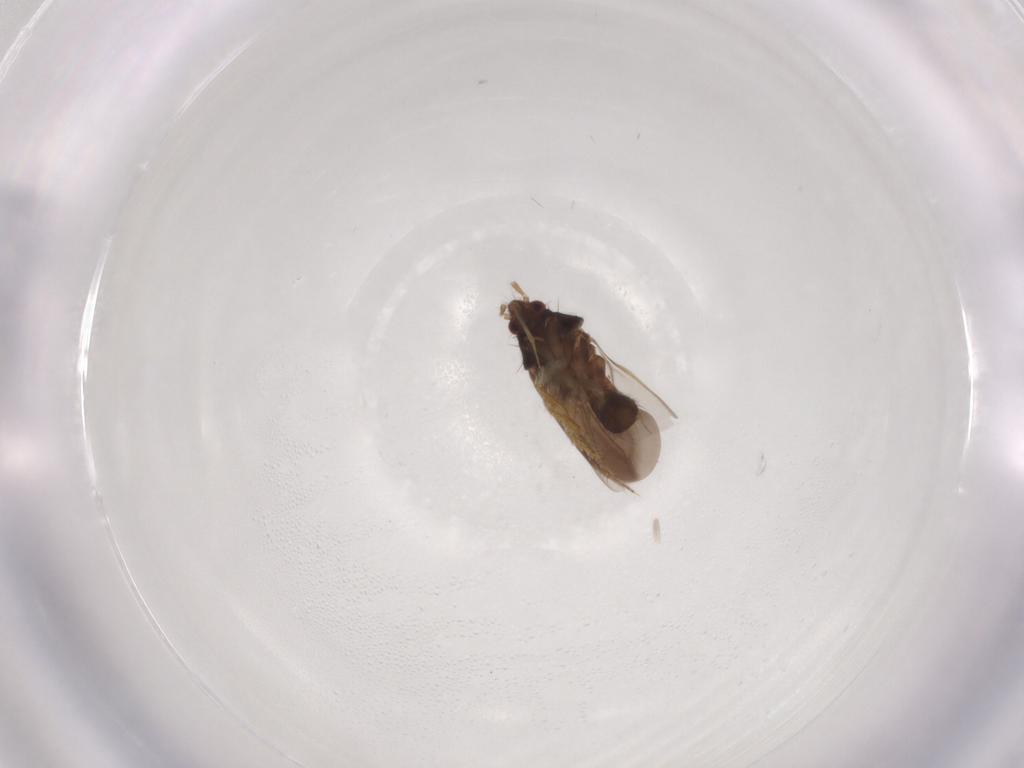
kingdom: Animalia
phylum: Arthropoda
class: Insecta
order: Hemiptera
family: Ceratocombidae
